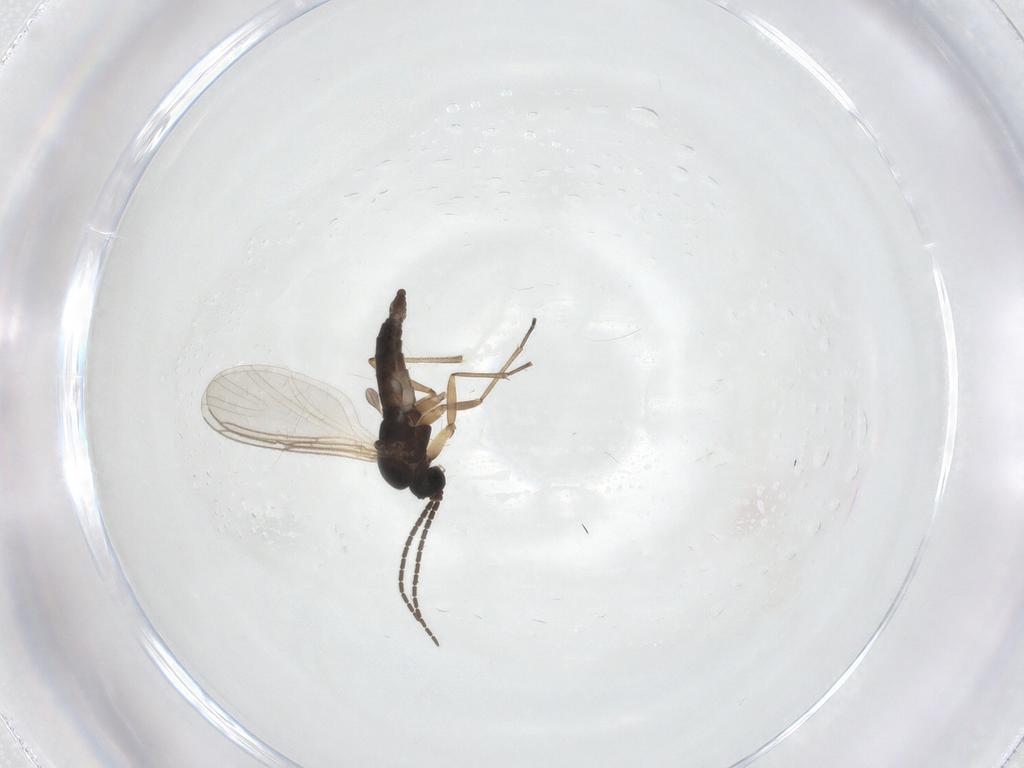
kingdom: Animalia
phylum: Arthropoda
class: Insecta
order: Diptera
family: Sciaridae
